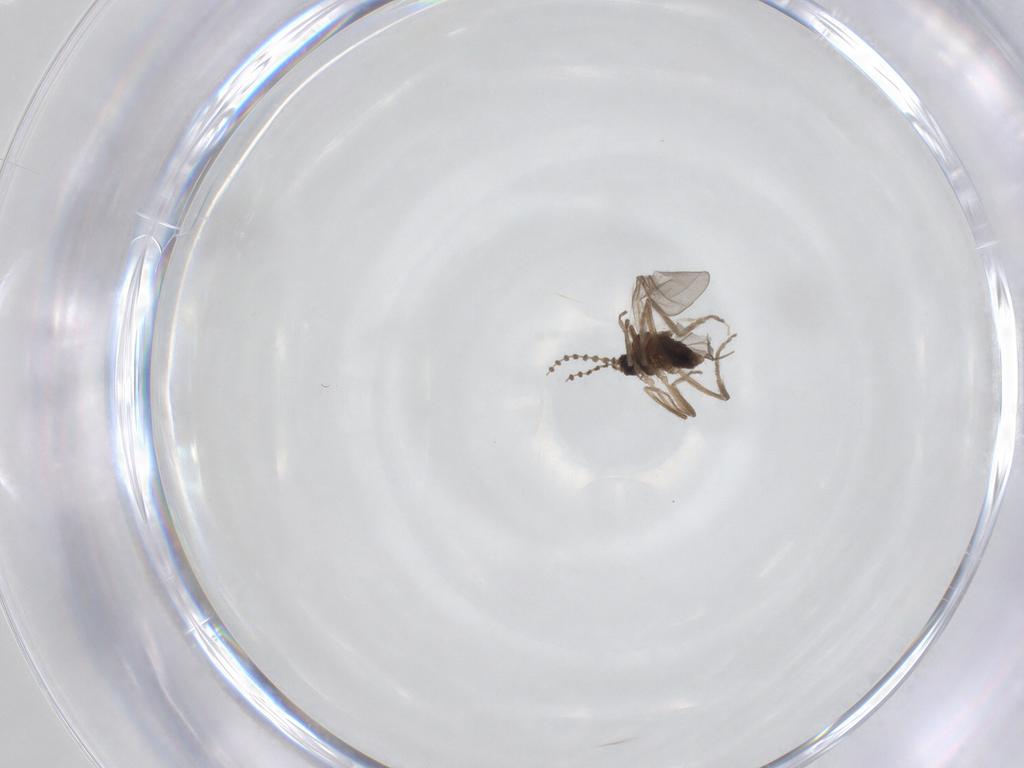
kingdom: Animalia
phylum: Arthropoda
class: Insecta
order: Diptera
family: Cecidomyiidae
